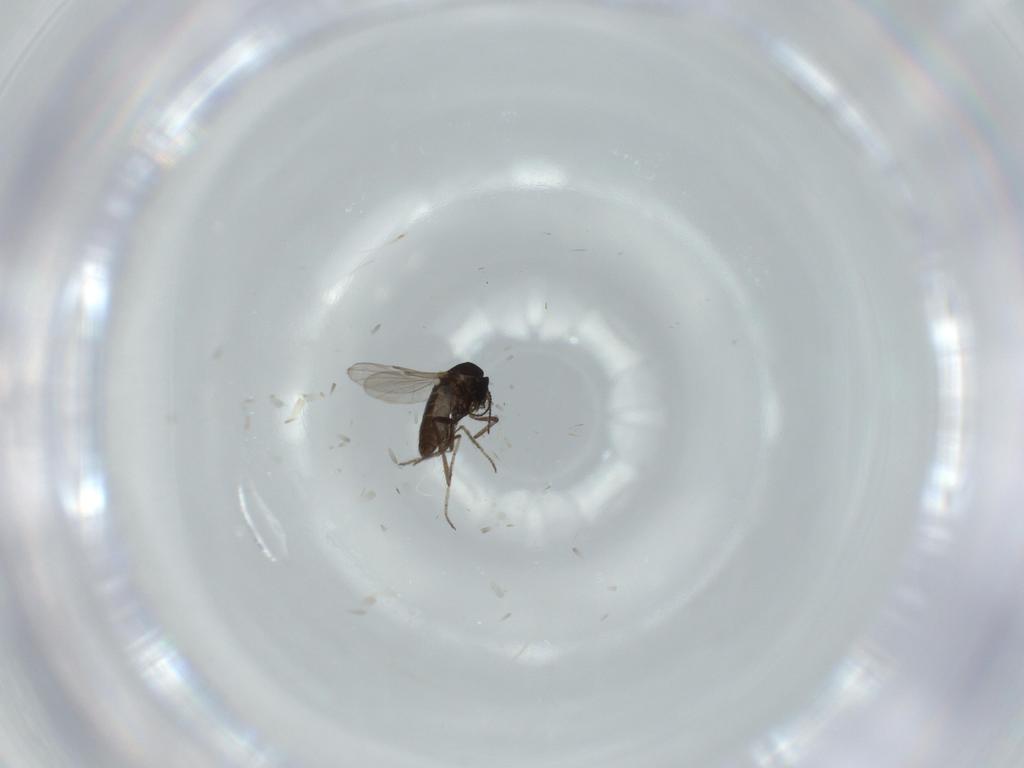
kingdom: Animalia
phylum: Arthropoda
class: Insecta
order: Diptera
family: Ceratopogonidae
